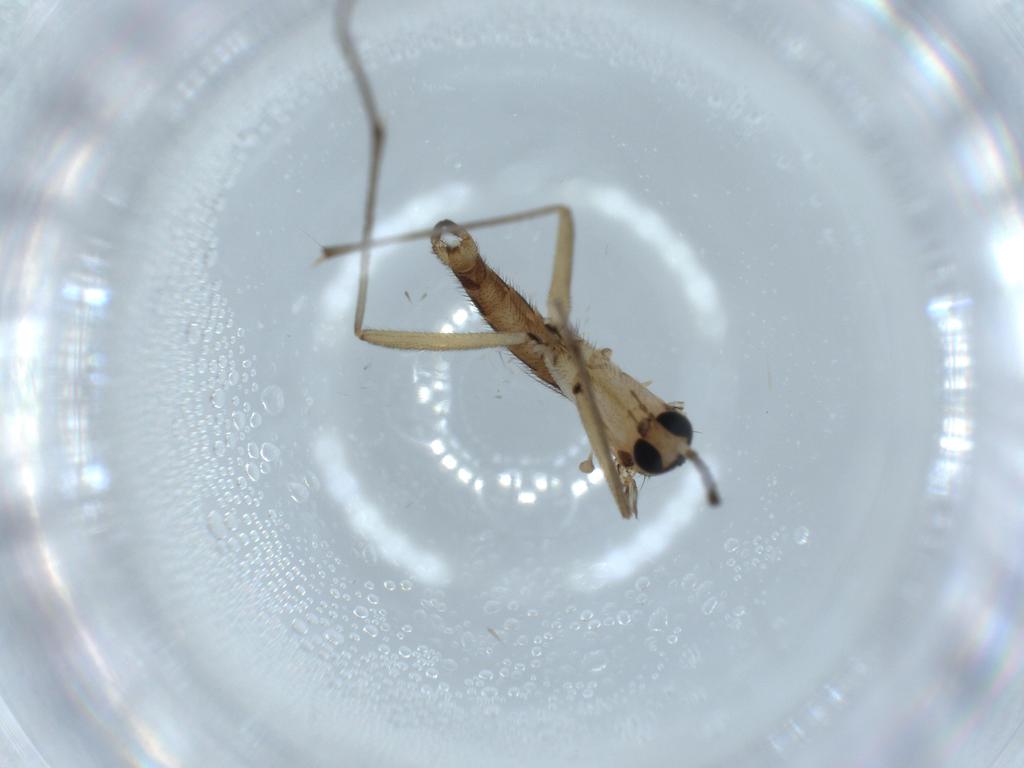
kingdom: Animalia
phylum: Arthropoda
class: Insecta
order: Diptera
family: Sciaridae
